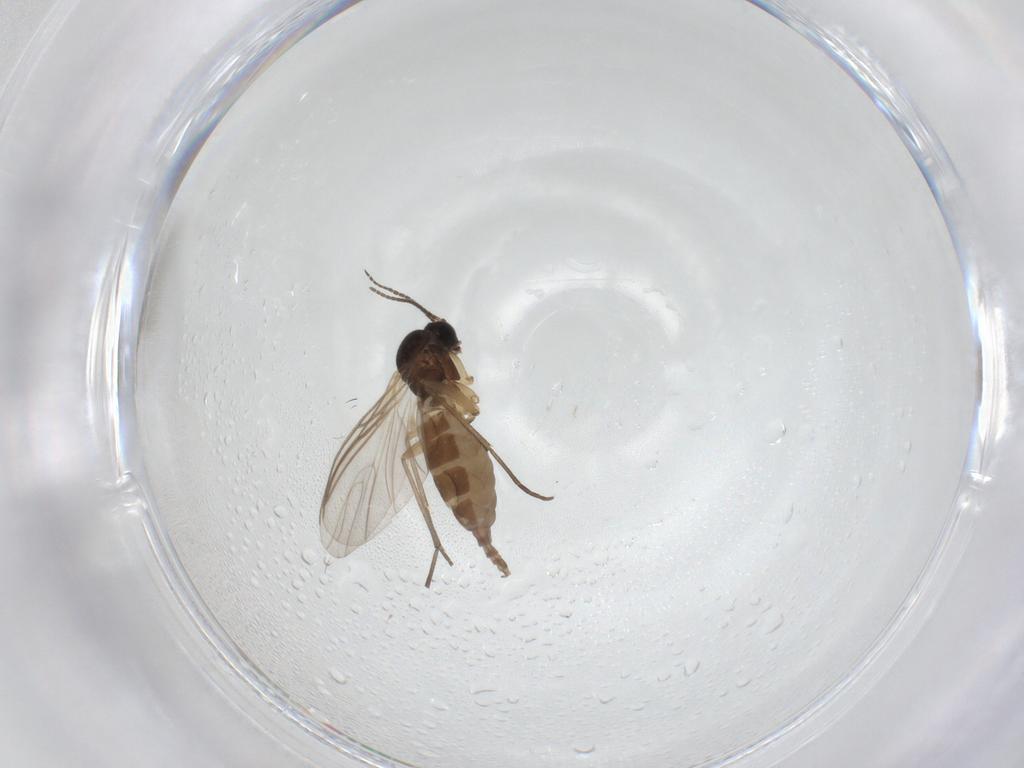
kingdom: Animalia
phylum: Arthropoda
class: Insecta
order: Diptera
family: Sciaridae
